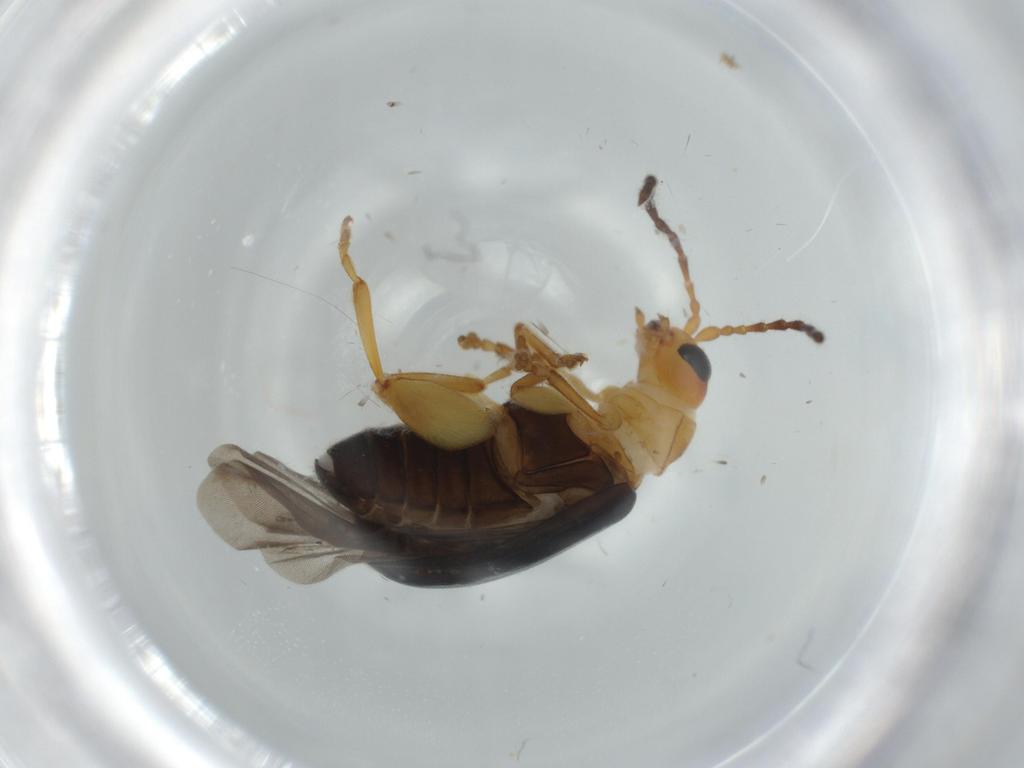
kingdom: Animalia
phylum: Arthropoda
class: Insecta
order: Coleoptera
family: Chrysomelidae
